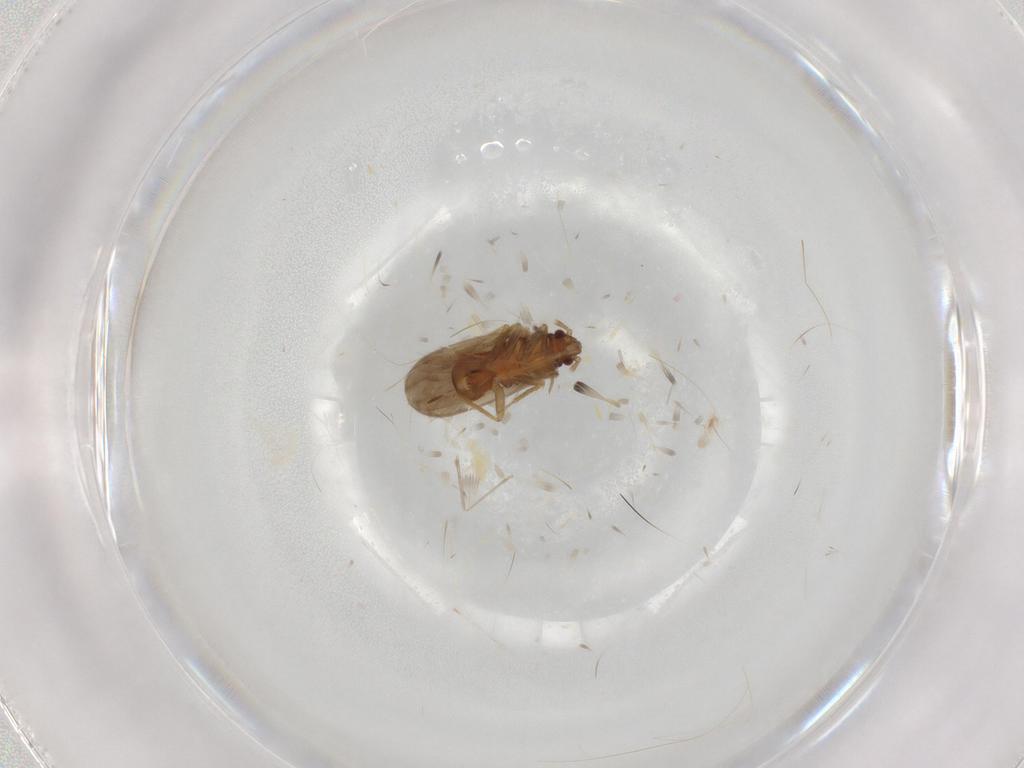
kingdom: Animalia
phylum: Arthropoda
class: Insecta
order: Hemiptera
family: Ceratocombidae
